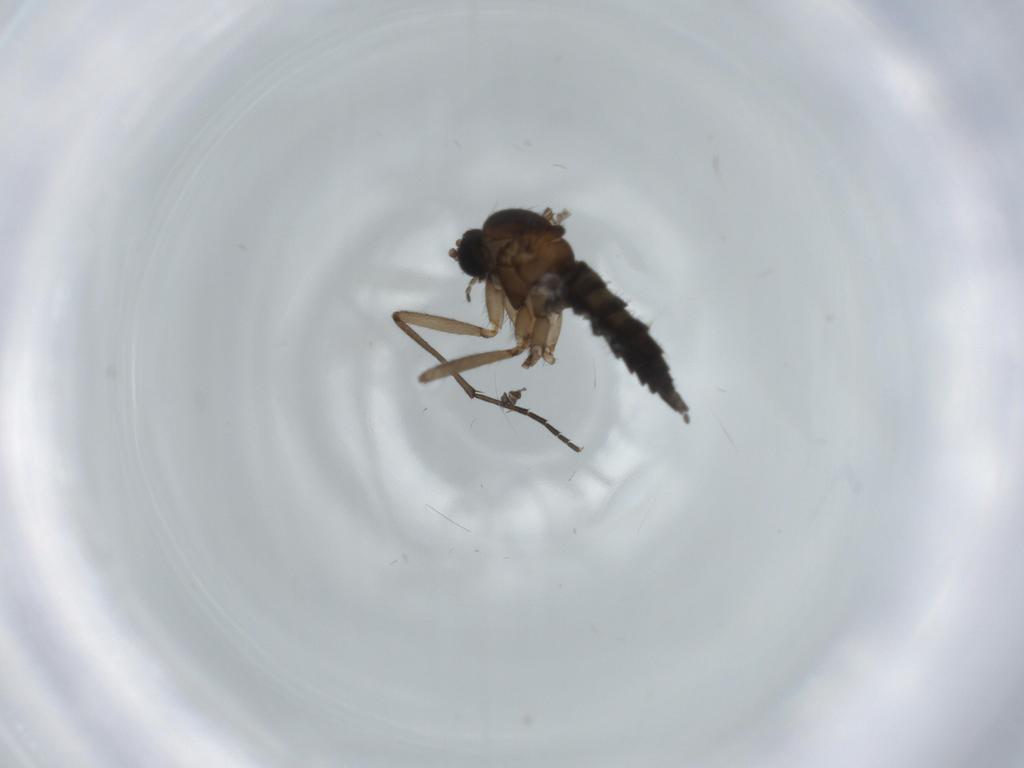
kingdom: Animalia
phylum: Arthropoda
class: Insecta
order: Diptera
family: Sciaridae
